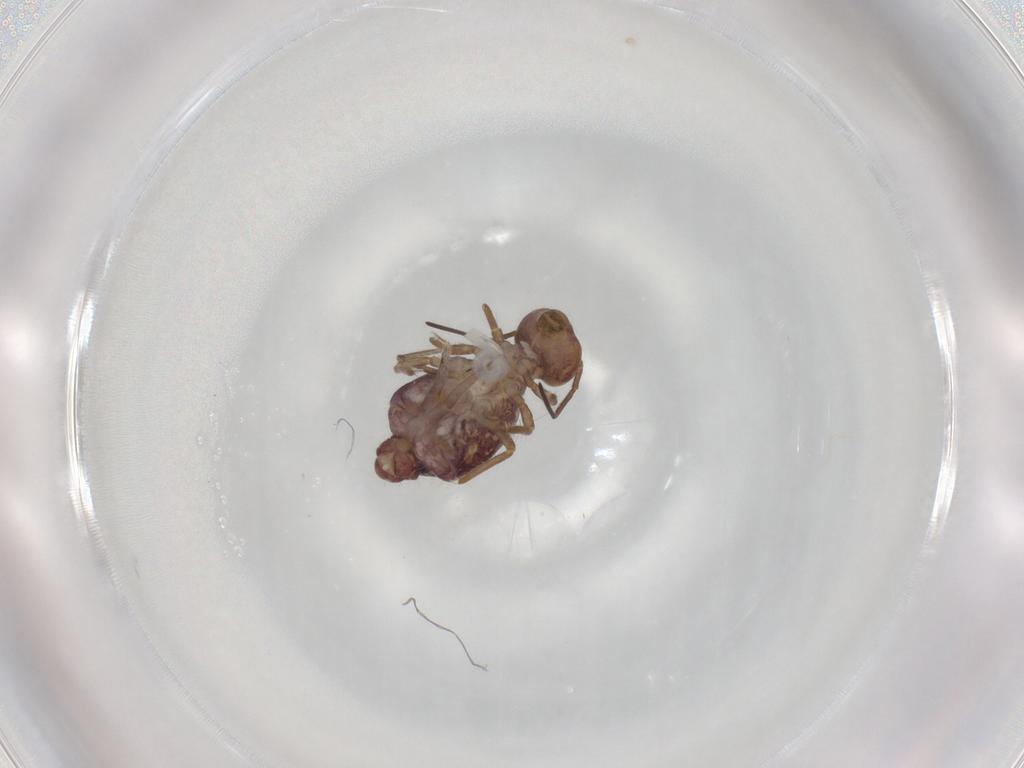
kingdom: Animalia
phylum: Arthropoda
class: Collembola
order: Symphypleona
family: Sminthuridae
